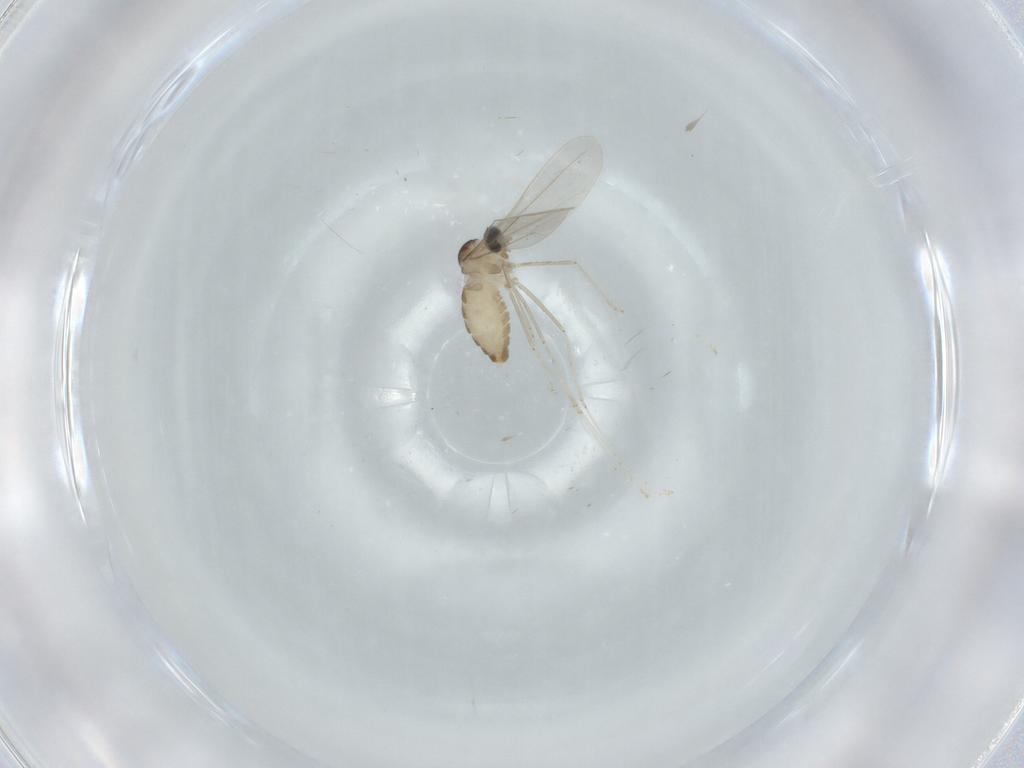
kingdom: Animalia
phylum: Arthropoda
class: Insecta
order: Diptera
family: Cecidomyiidae
